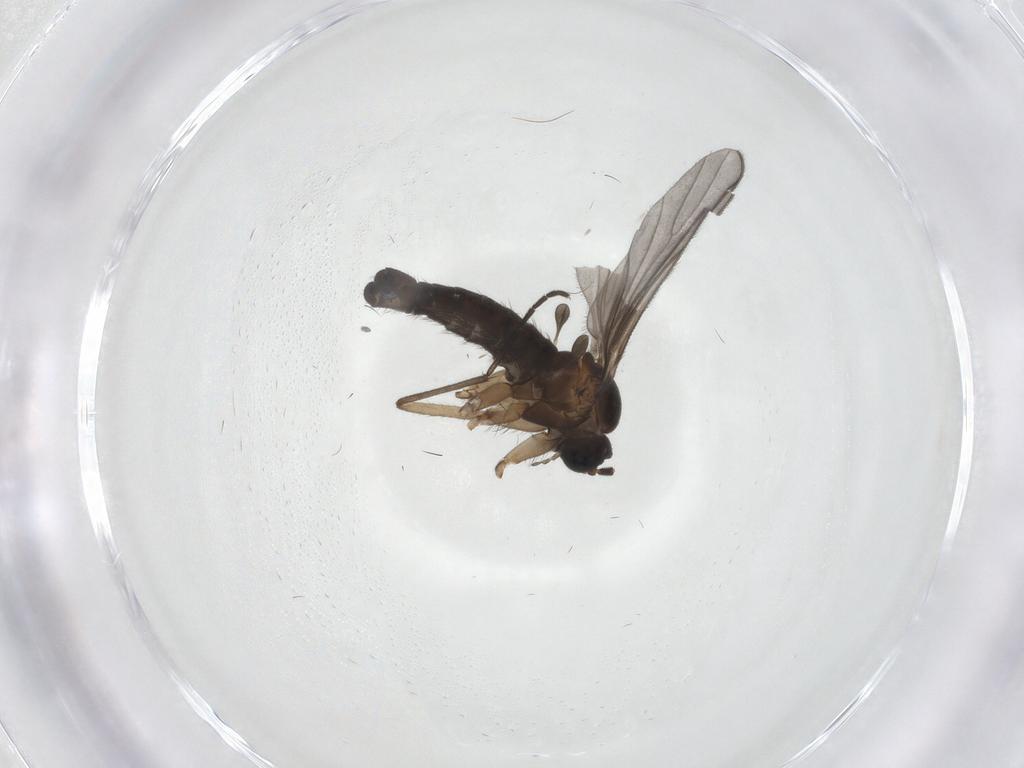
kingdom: Animalia
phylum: Arthropoda
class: Insecta
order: Diptera
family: Sciaridae
